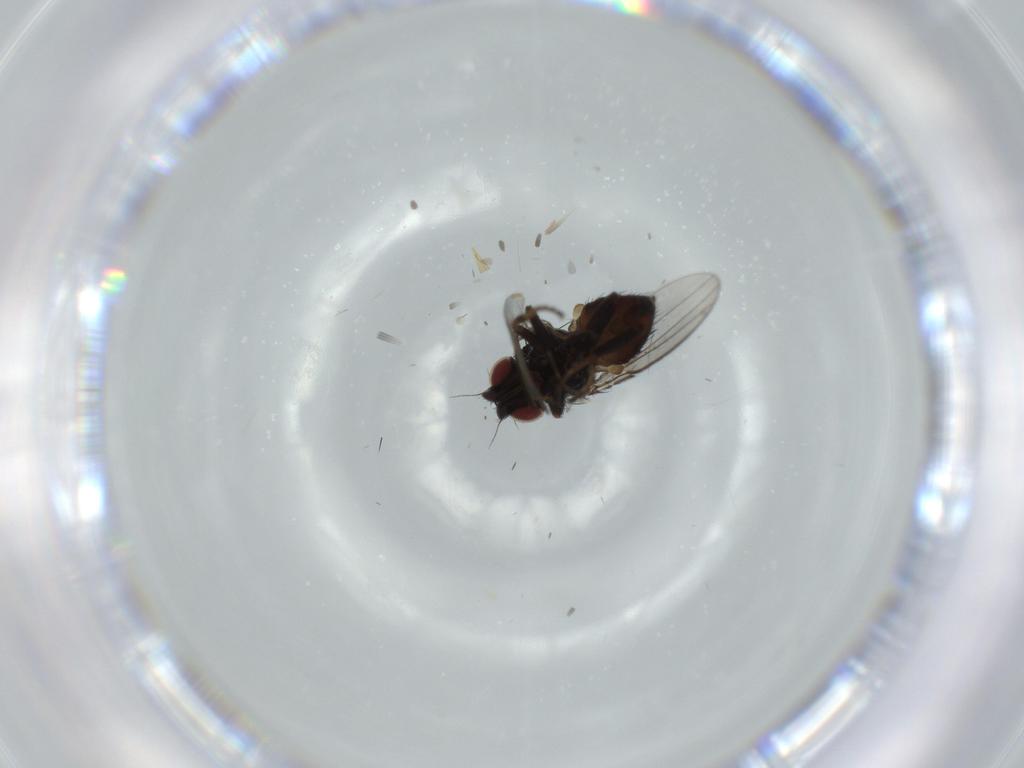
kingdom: Animalia
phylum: Arthropoda
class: Insecta
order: Diptera
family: Milichiidae
